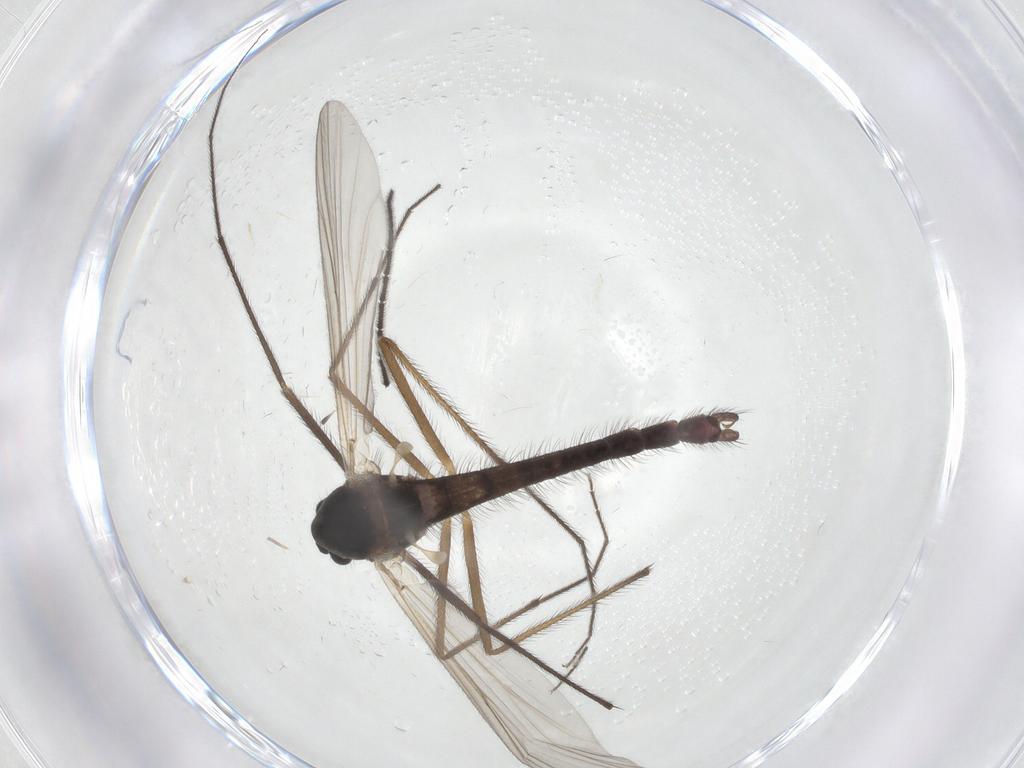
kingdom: Animalia
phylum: Arthropoda
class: Insecta
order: Diptera
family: Chironomidae
